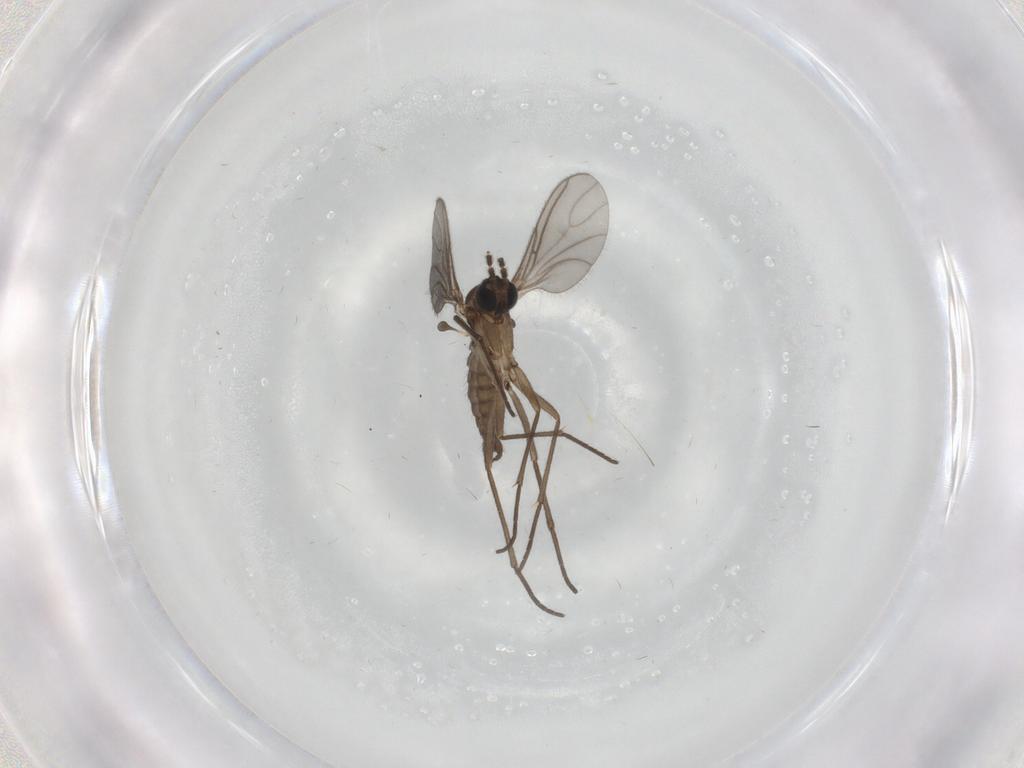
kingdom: Animalia
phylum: Arthropoda
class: Insecta
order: Diptera
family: Sciaridae
